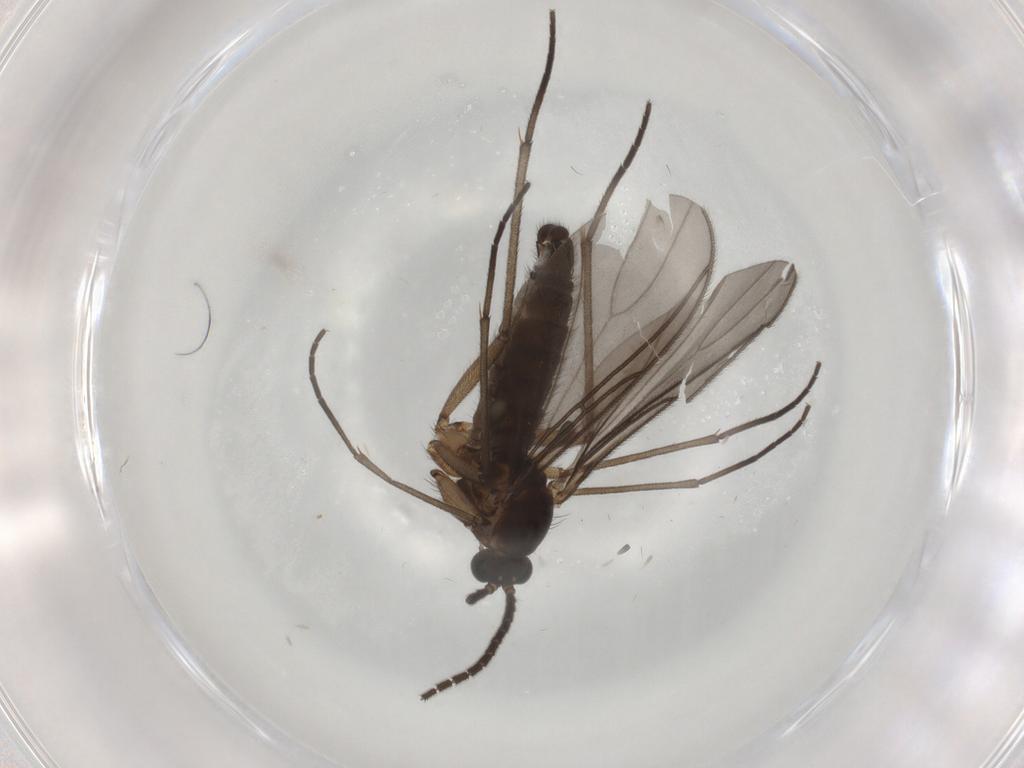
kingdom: Animalia
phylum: Arthropoda
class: Insecta
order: Diptera
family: Sciaridae
